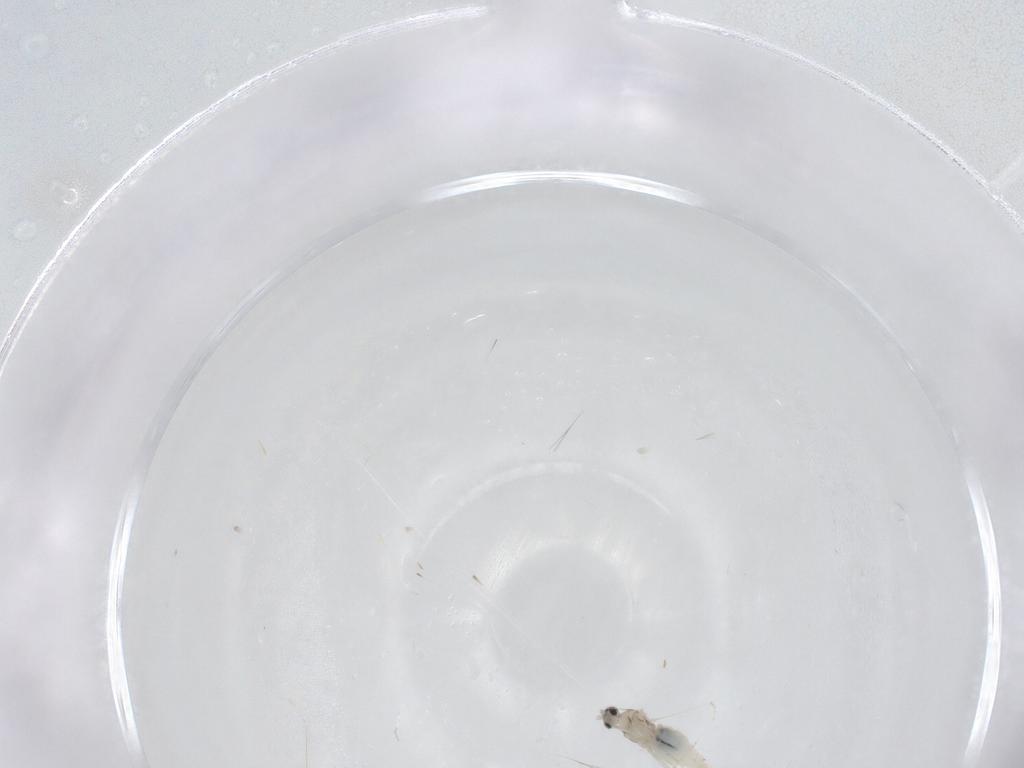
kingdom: Animalia
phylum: Arthropoda
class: Insecta
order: Diptera
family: Cecidomyiidae
